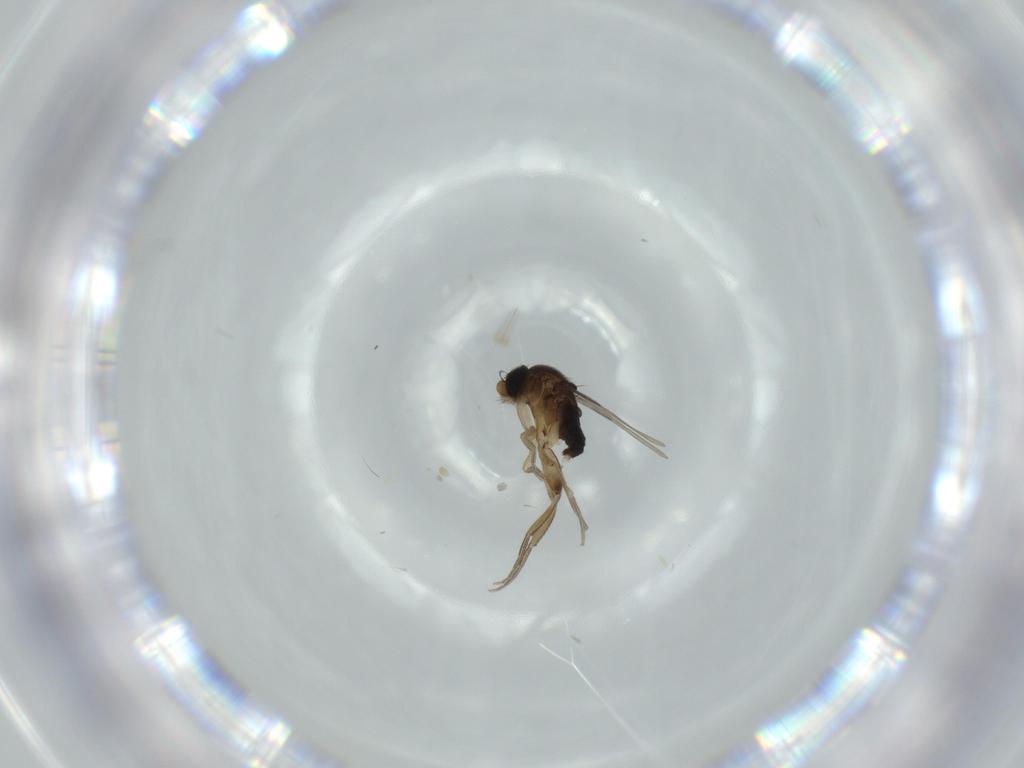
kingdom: Animalia
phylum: Arthropoda
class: Insecta
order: Diptera
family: Phoridae
